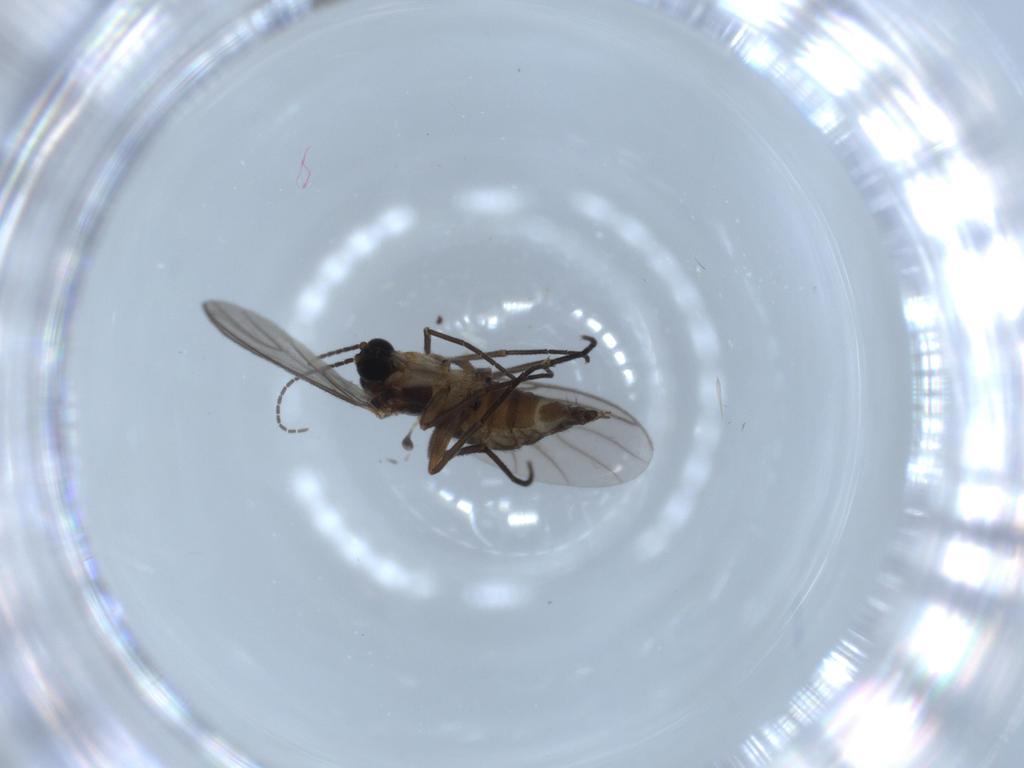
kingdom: Animalia
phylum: Arthropoda
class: Insecta
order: Diptera
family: Sciaridae
